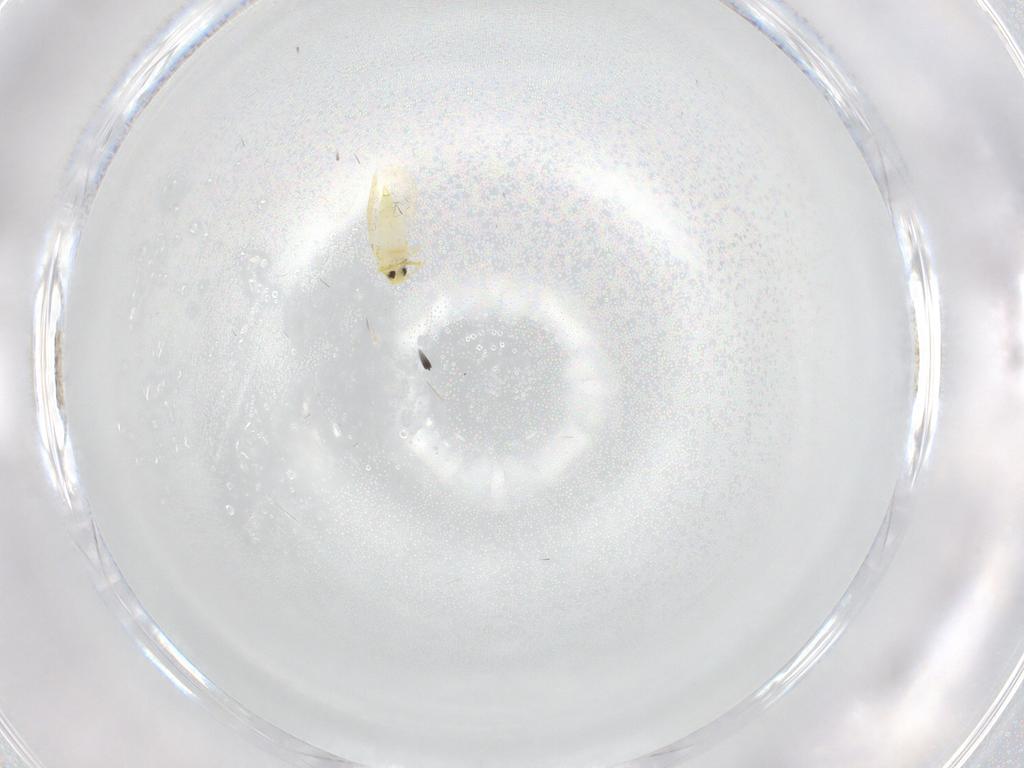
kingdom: Animalia
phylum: Arthropoda
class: Insecta
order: Hemiptera
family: Aleyrodidae
